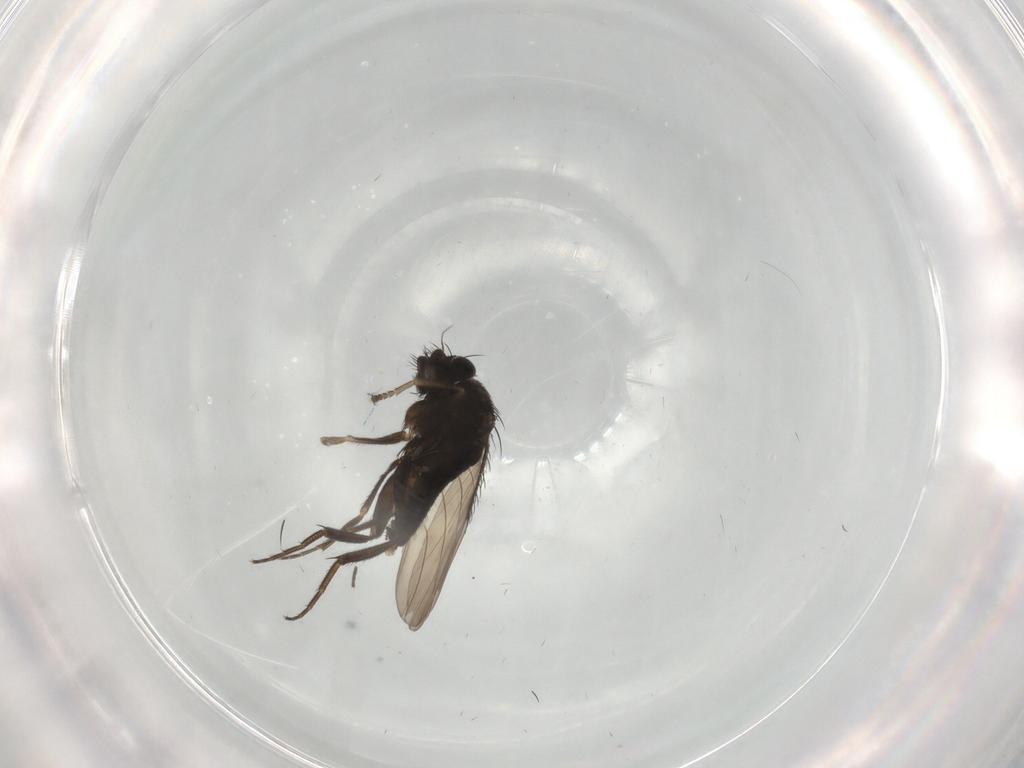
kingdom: Animalia
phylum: Arthropoda
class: Insecta
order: Diptera
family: Phoridae
